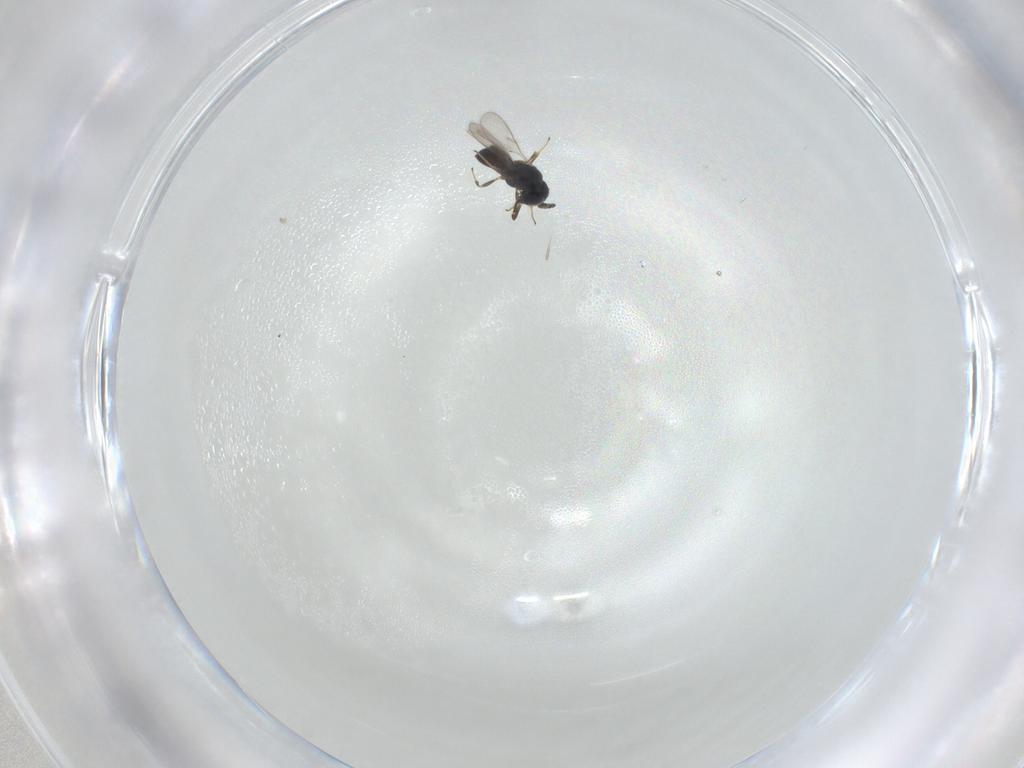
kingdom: Animalia
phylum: Arthropoda
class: Insecta
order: Hymenoptera
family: Scelionidae
